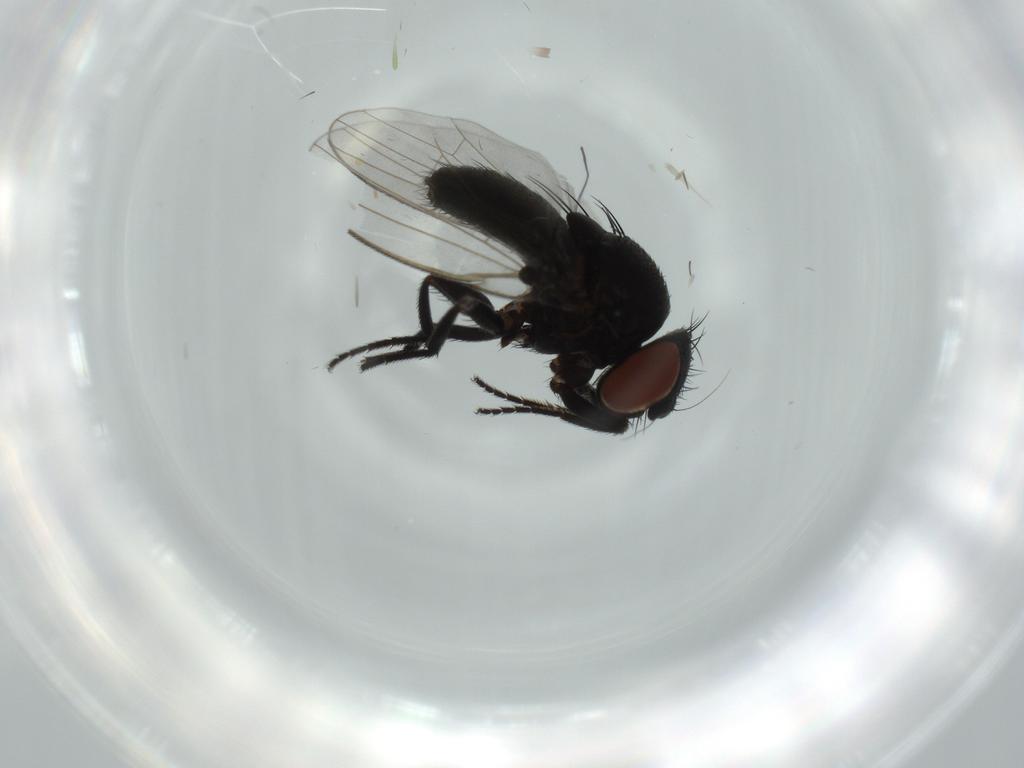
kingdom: Animalia
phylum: Arthropoda
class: Insecta
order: Diptera
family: Cecidomyiidae
